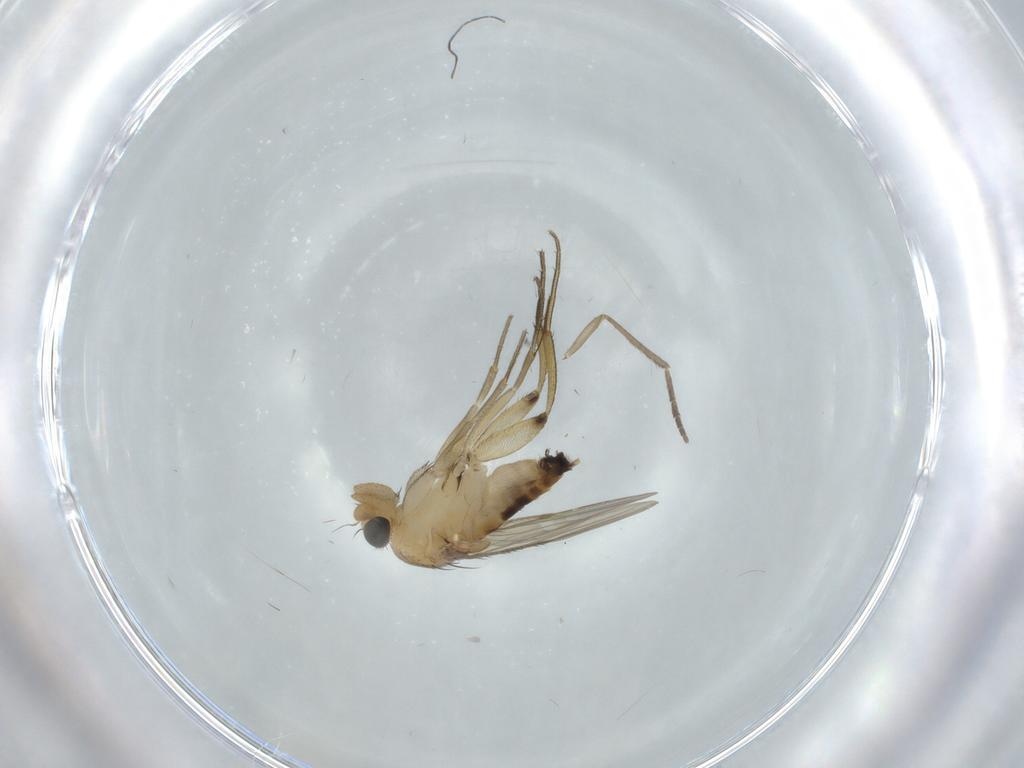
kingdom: Animalia
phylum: Arthropoda
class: Insecta
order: Diptera
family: Phoridae
